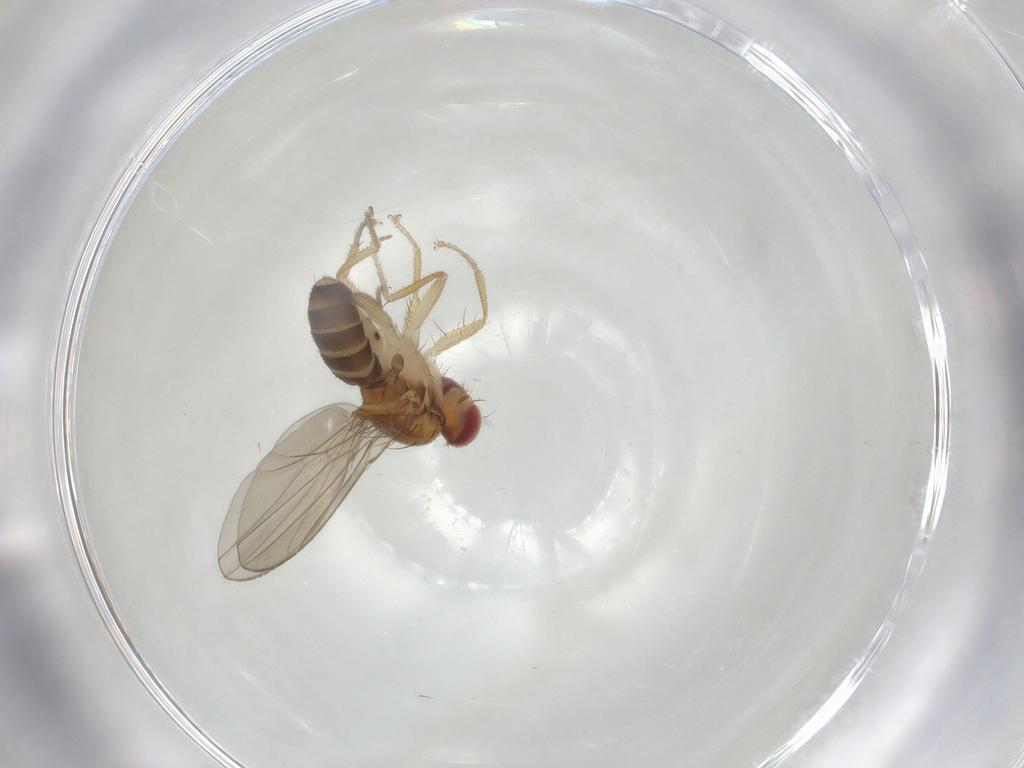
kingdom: Animalia
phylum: Arthropoda
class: Insecta
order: Diptera
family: Drosophilidae
